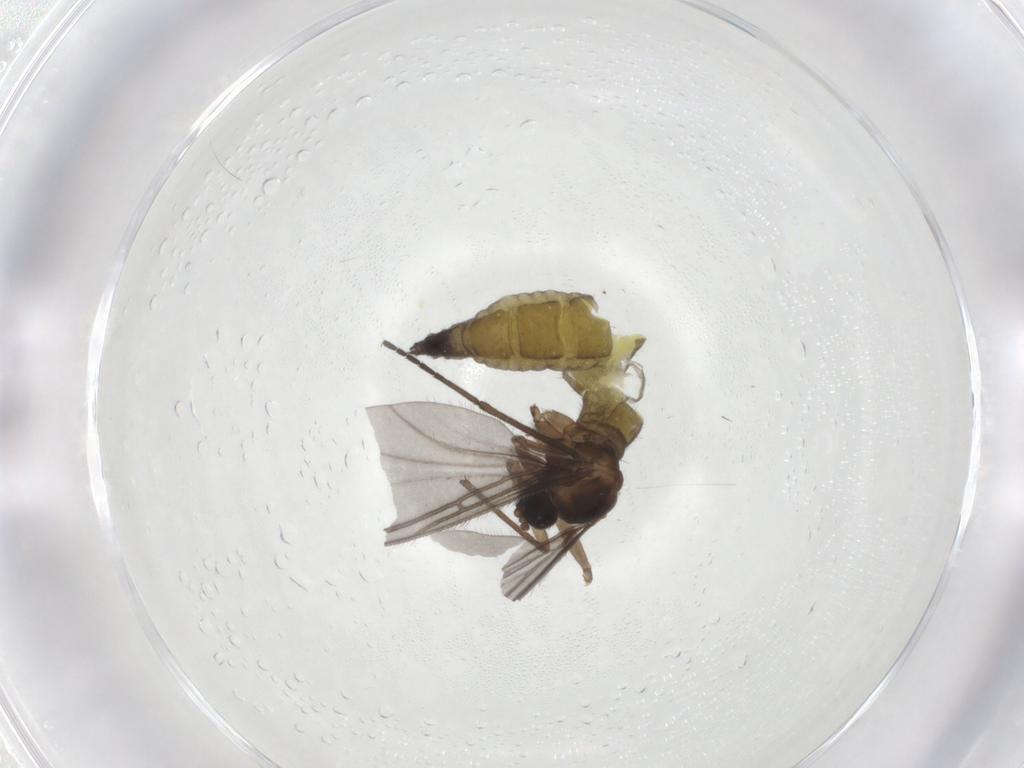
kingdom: Animalia
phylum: Arthropoda
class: Insecta
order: Diptera
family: Sciaridae
